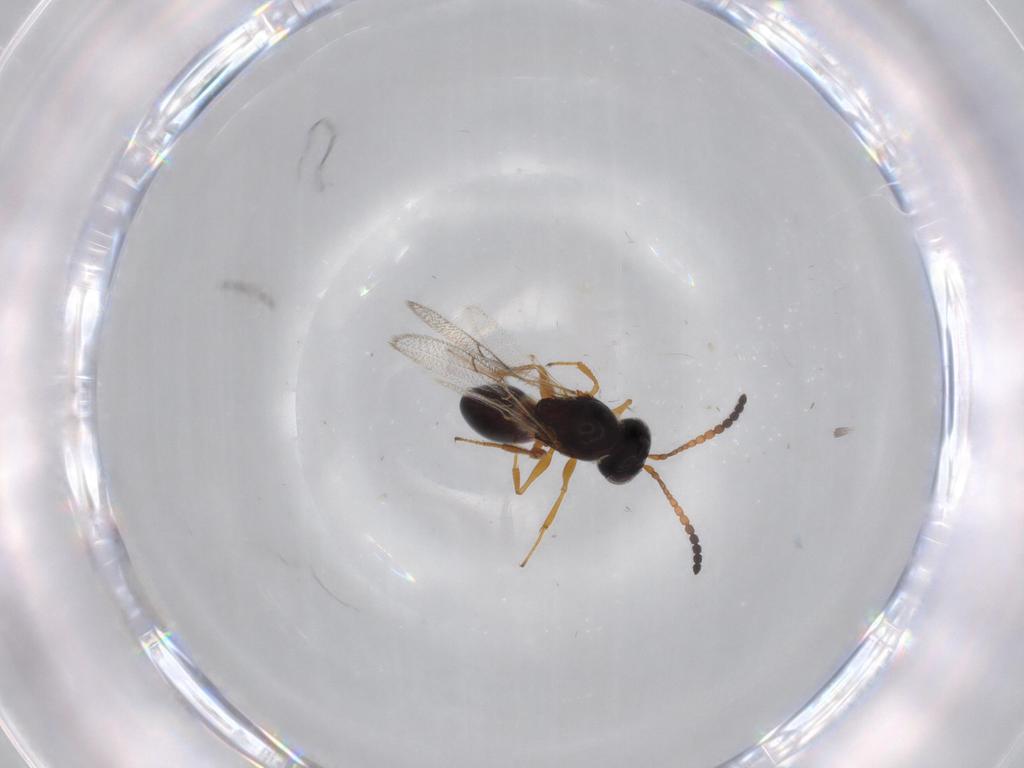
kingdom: Animalia
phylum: Arthropoda
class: Insecta
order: Hymenoptera
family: Figitidae
